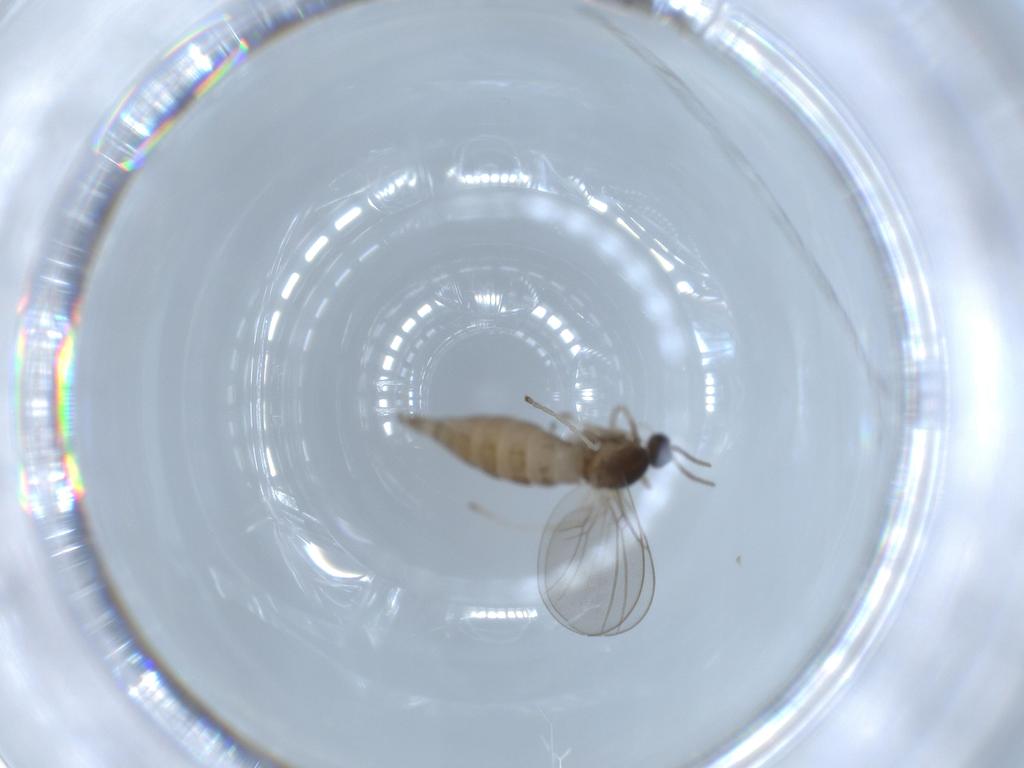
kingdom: Animalia
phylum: Arthropoda
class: Insecta
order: Diptera
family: Cecidomyiidae
